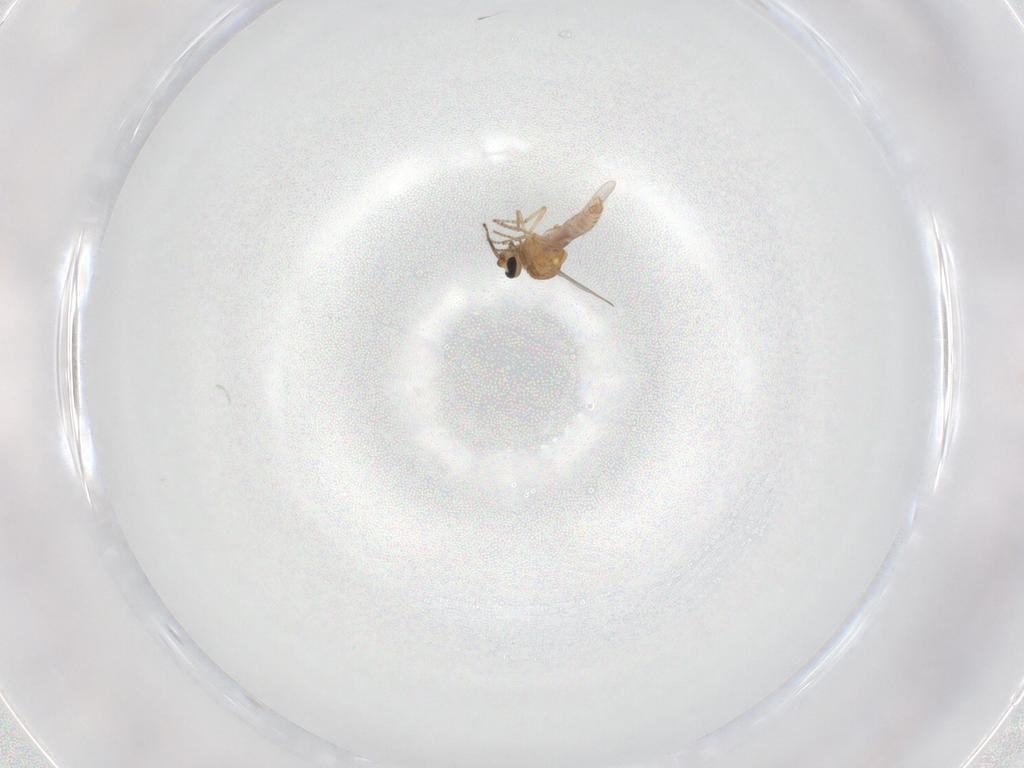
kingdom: Animalia
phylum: Arthropoda
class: Insecta
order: Diptera
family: Ceratopogonidae
